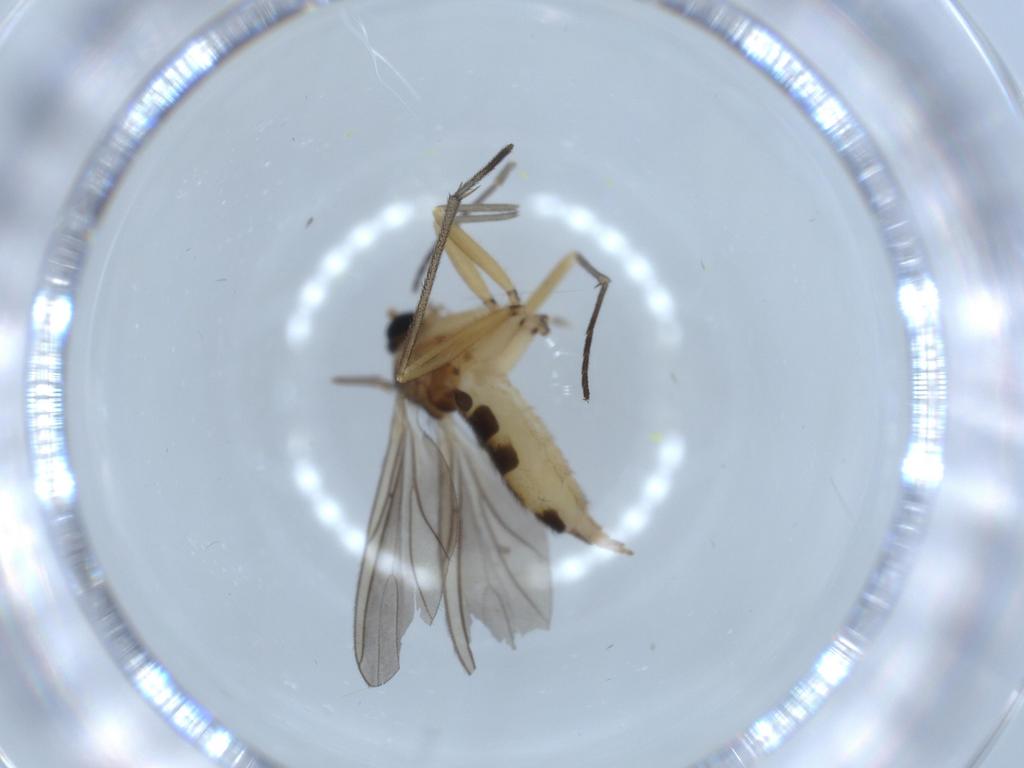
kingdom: Animalia
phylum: Arthropoda
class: Insecta
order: Diptera
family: Sciaridae
